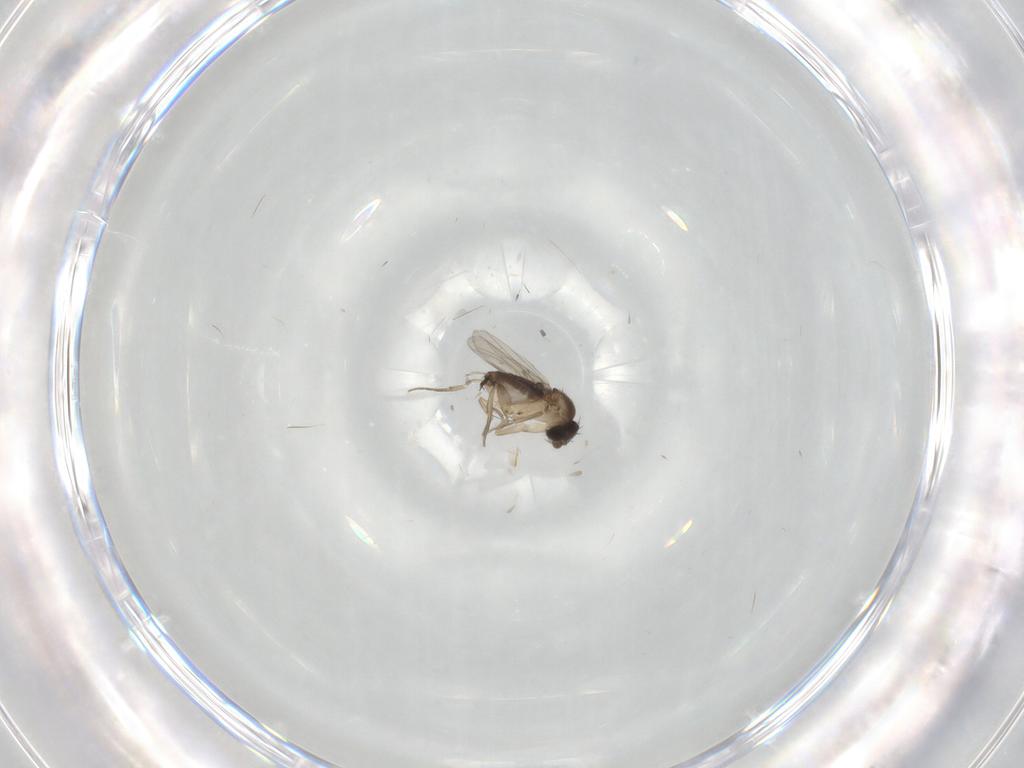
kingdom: Animalia
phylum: Arthropoda
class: Insecta
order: Diptera
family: Phoridae
